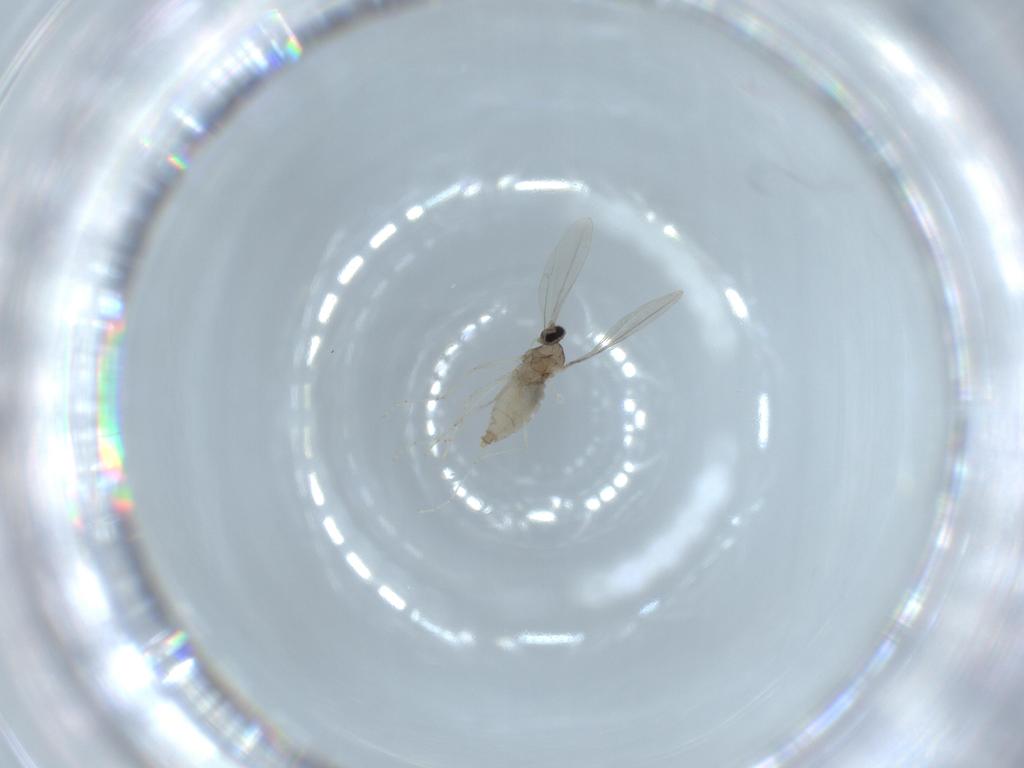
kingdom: Animalia
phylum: Arthropoda
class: Insecta
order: Diptera
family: Cecidomyiidae
